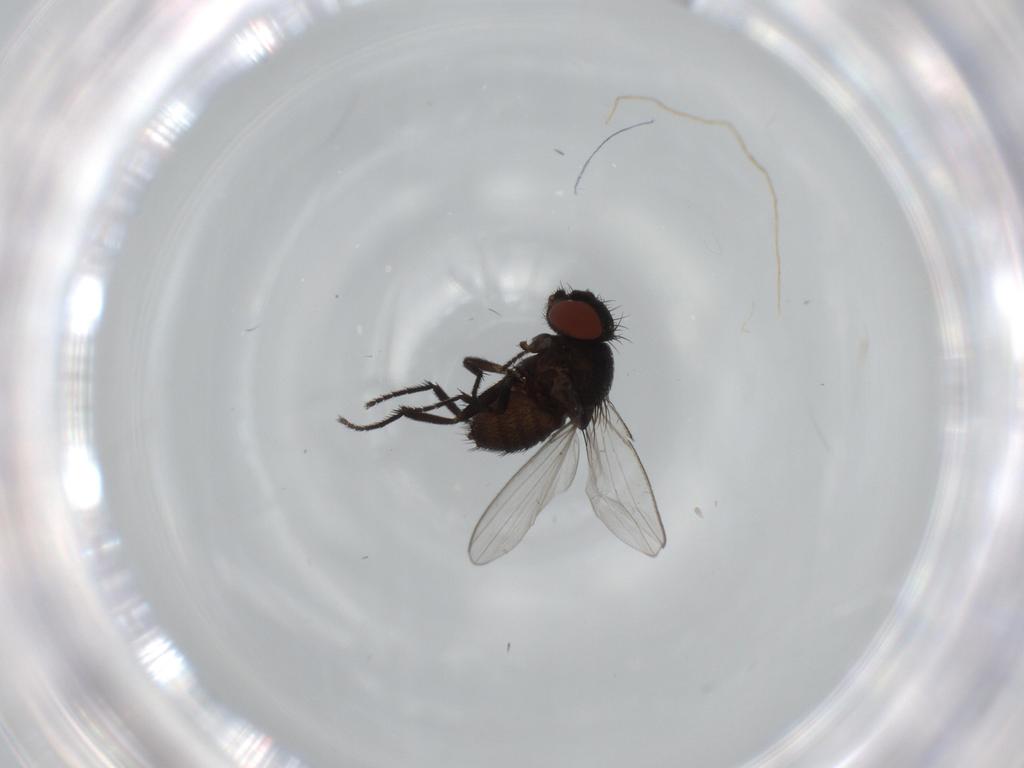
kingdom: Animalia
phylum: Arthropoda
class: Insecta
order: Diptera
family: Milichiidae
